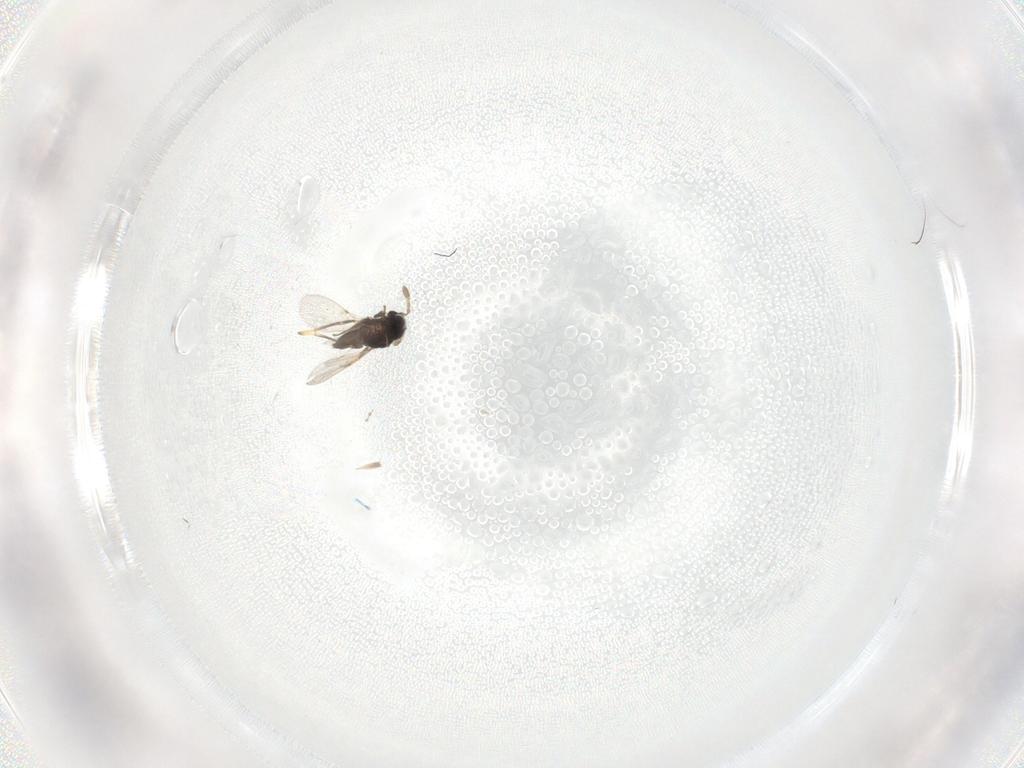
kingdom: Animalia
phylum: Arthropoda
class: Insecta
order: Hymenoptera
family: Encyrtidae
